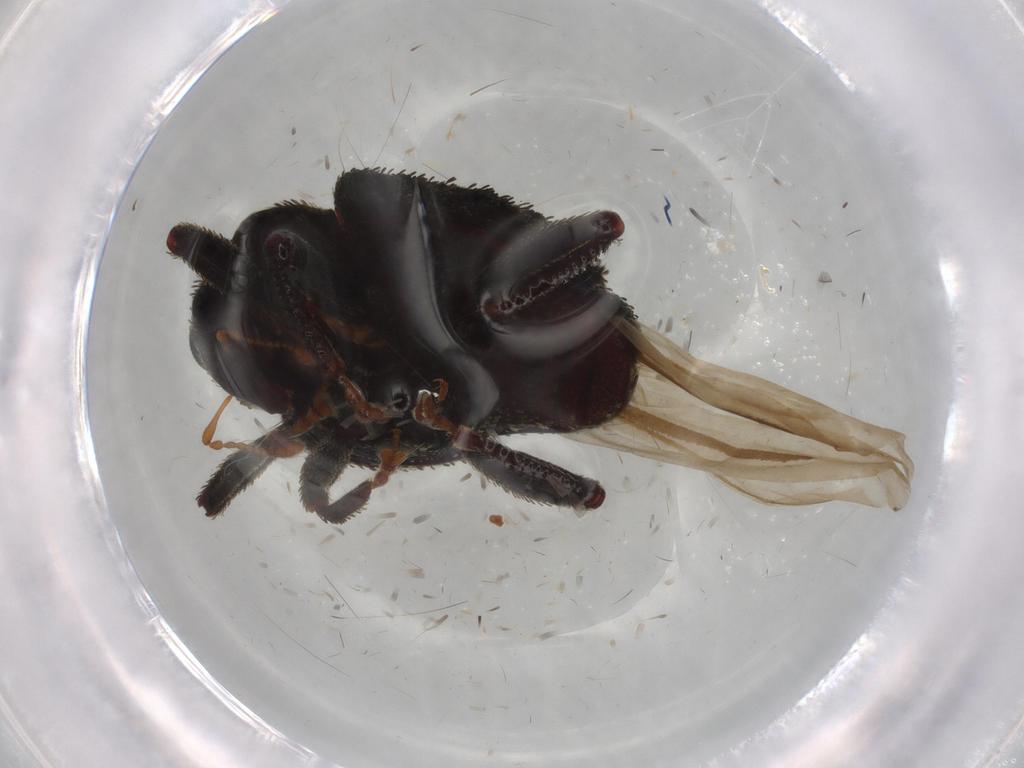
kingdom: Animalia
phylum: Arthropoda
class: Insecta
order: Coleoptera
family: Curculionidae
